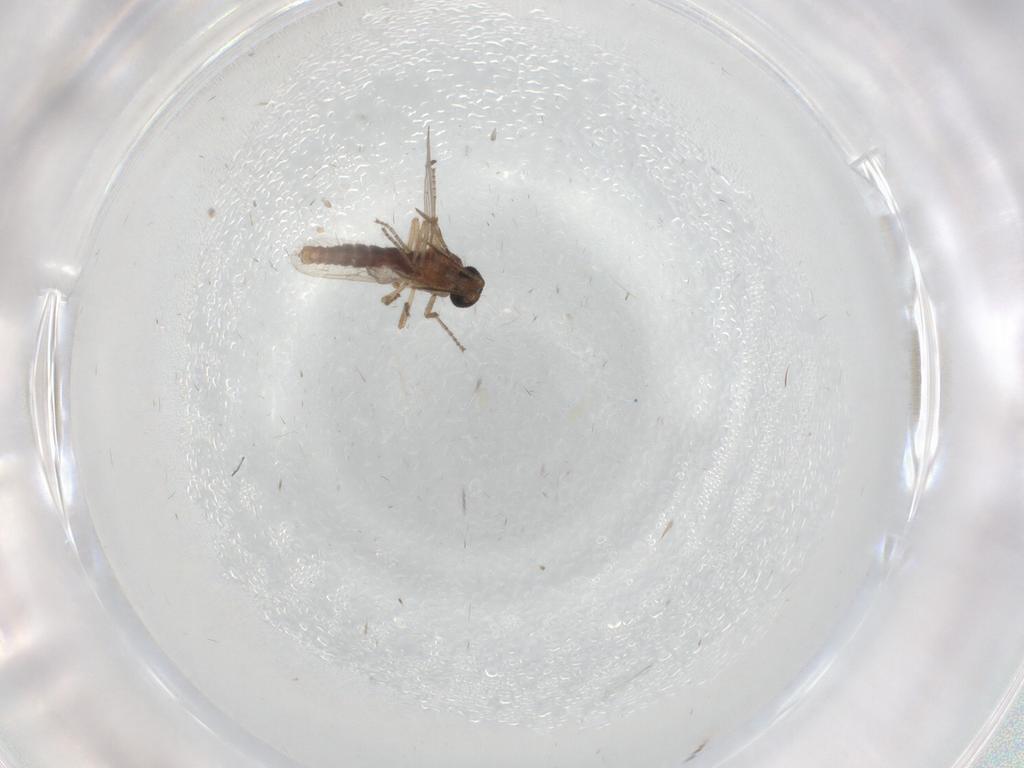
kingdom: Animalia
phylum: Arthropoda
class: Insecta
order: Diptera
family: Phoridae
